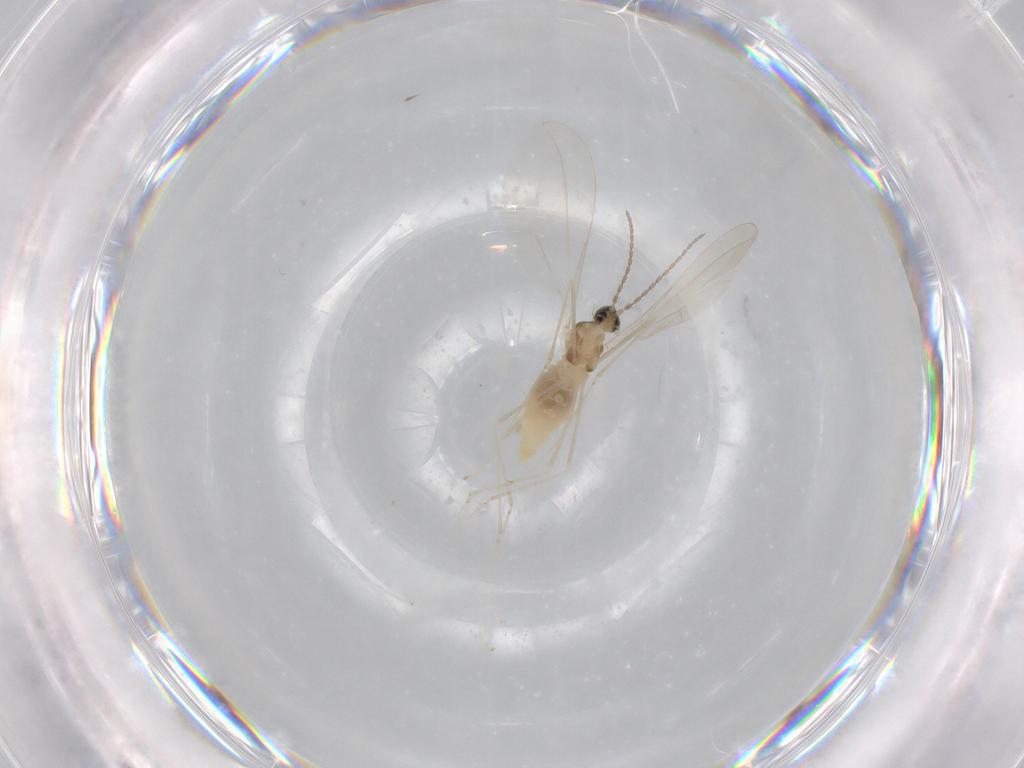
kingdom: Animalia
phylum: Arthropoda
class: Insecta
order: Diptera
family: Cecidomyiidae
